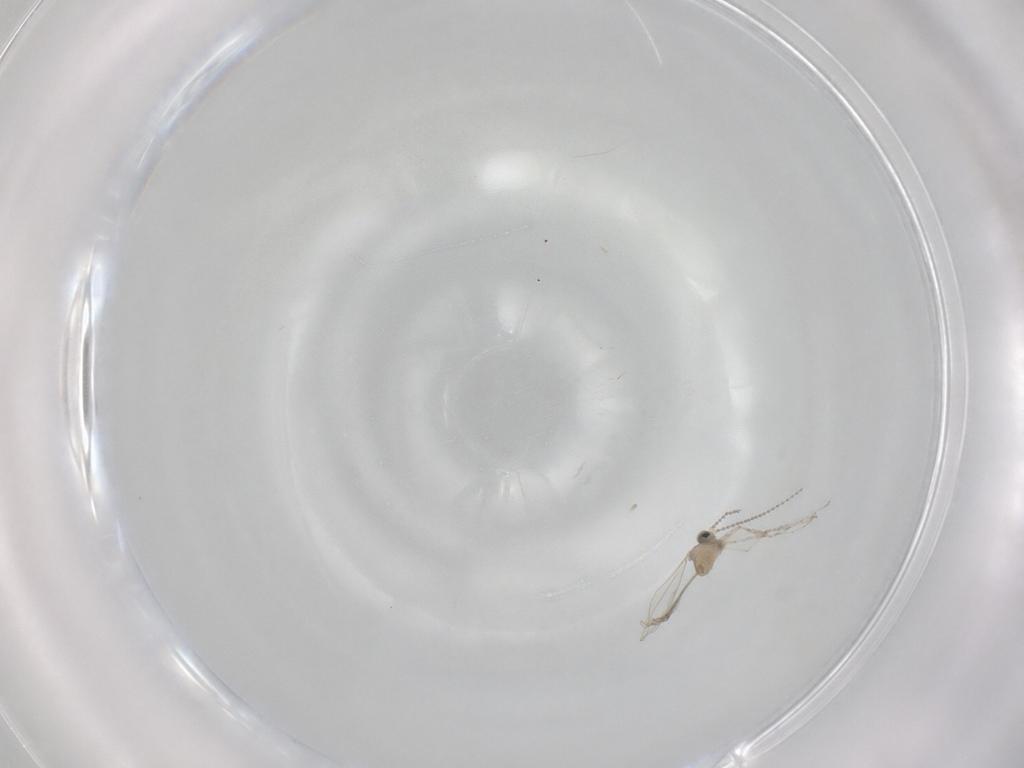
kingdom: Animalia
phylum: Arthropoda
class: Insecta
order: Diptera
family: Cecidomyiidae
